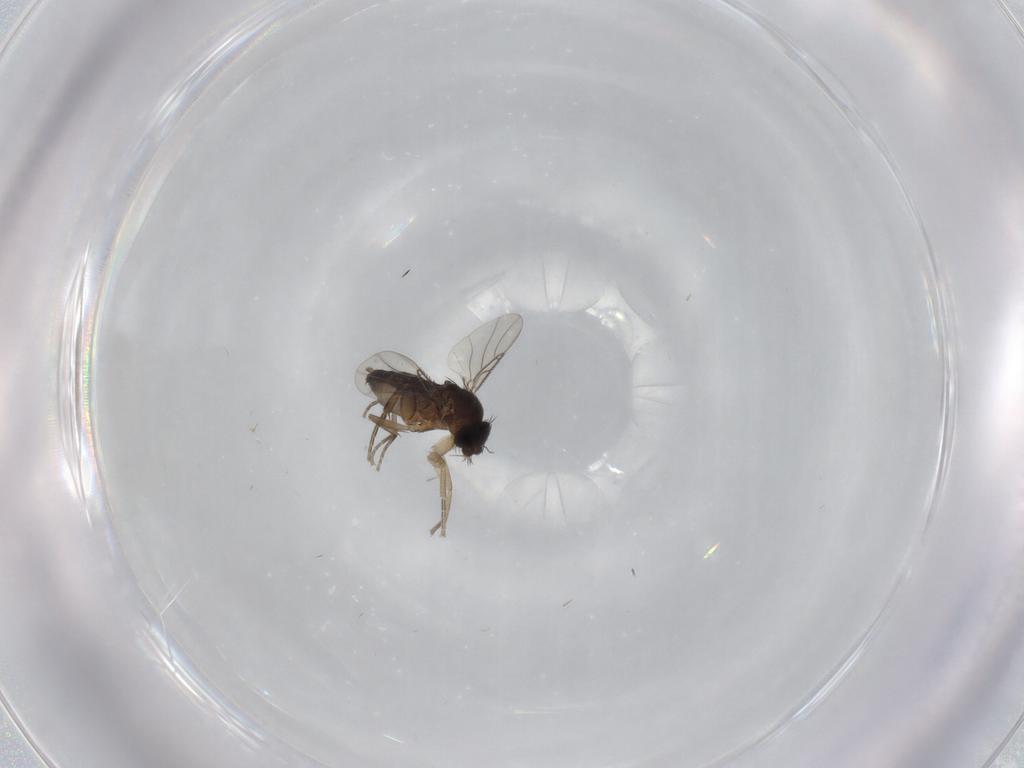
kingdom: Animalia
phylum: Arthropoda
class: Insecta
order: Diptera
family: Phoridae
